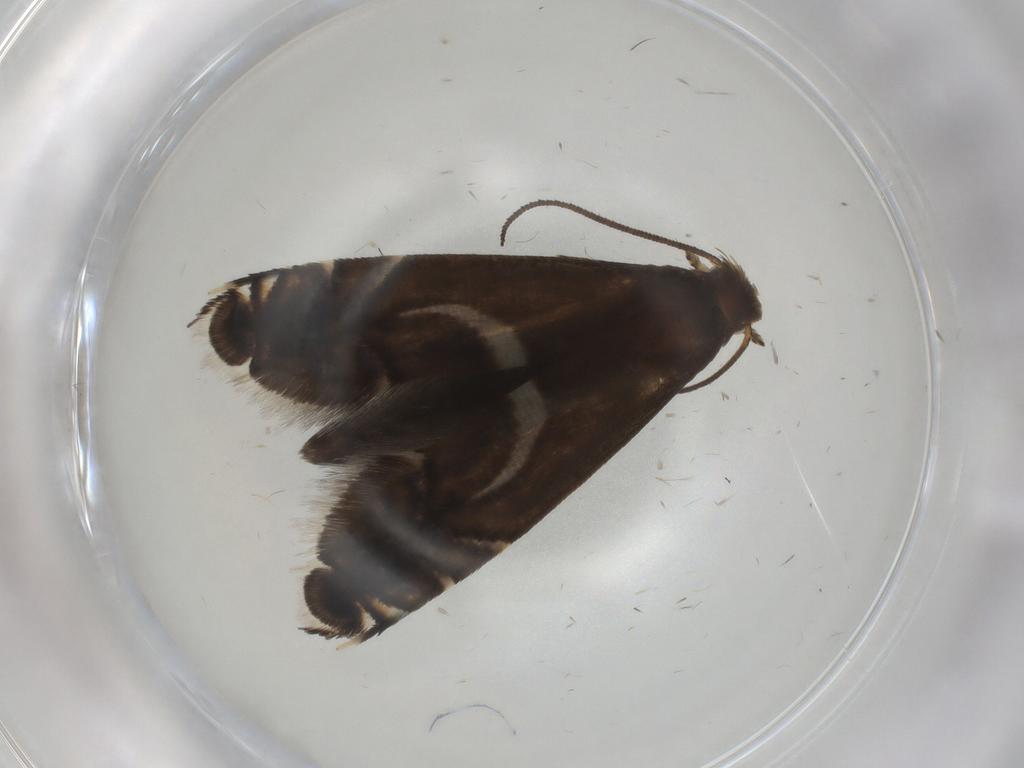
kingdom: Animalia
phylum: Arthropoda
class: Insecta
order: Lepidoptera
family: Glyphipterigidae
